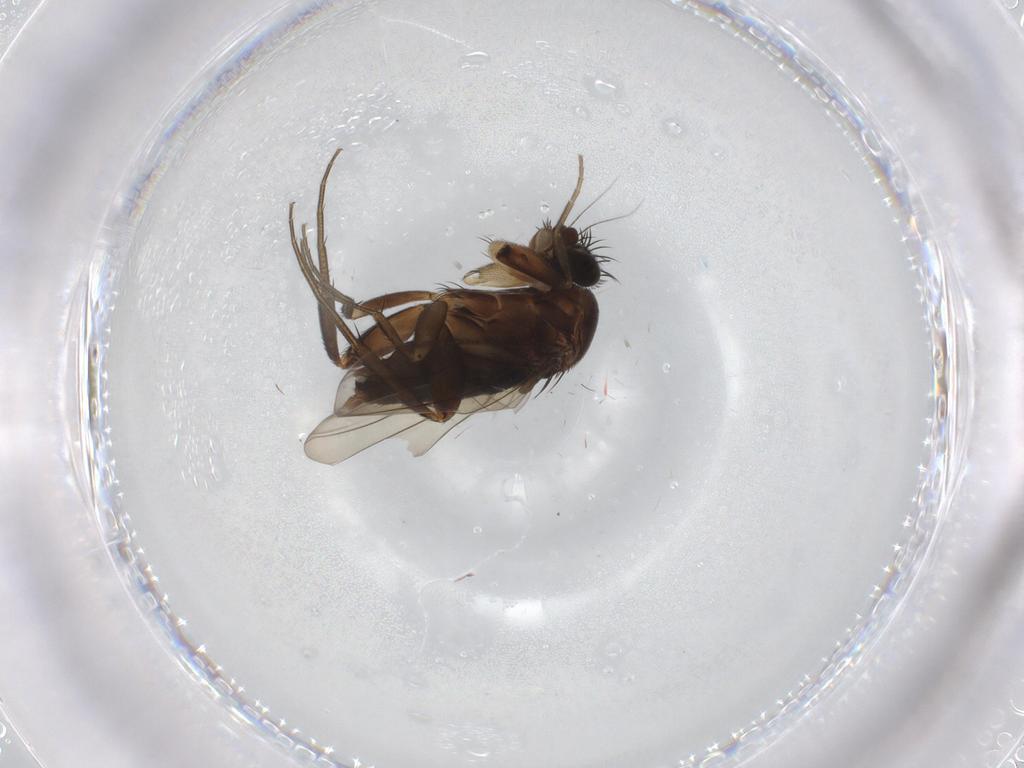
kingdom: Animalia
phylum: Arthropoda
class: Insecta
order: Diptera
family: Phoridae
